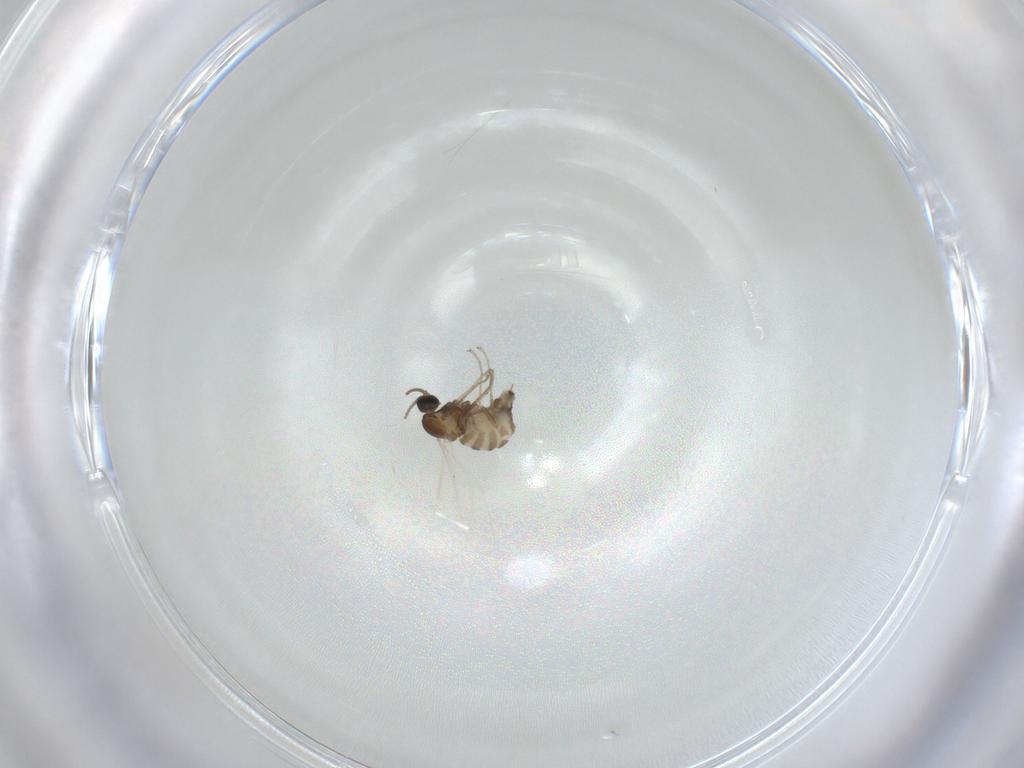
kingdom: Animalia
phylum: Arthropoda
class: Insecta
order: Diptera
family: Cecidomyiidae
